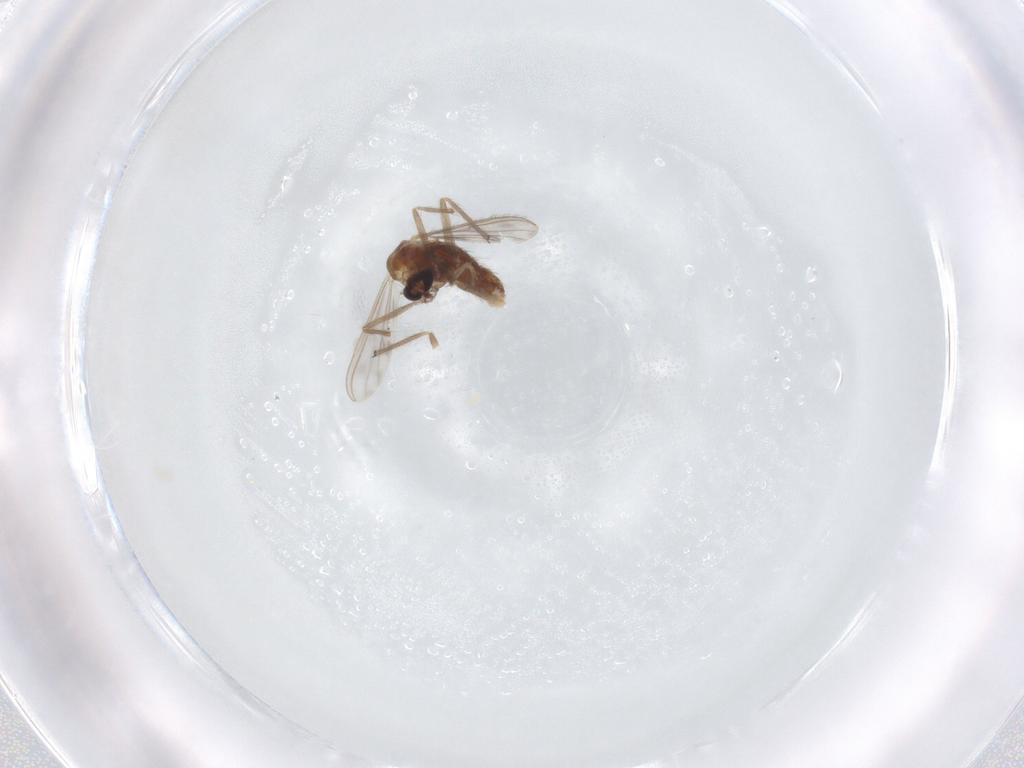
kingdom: Animalia
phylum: Arthropoda
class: Insecta
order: Diptera
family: Chironomidae
